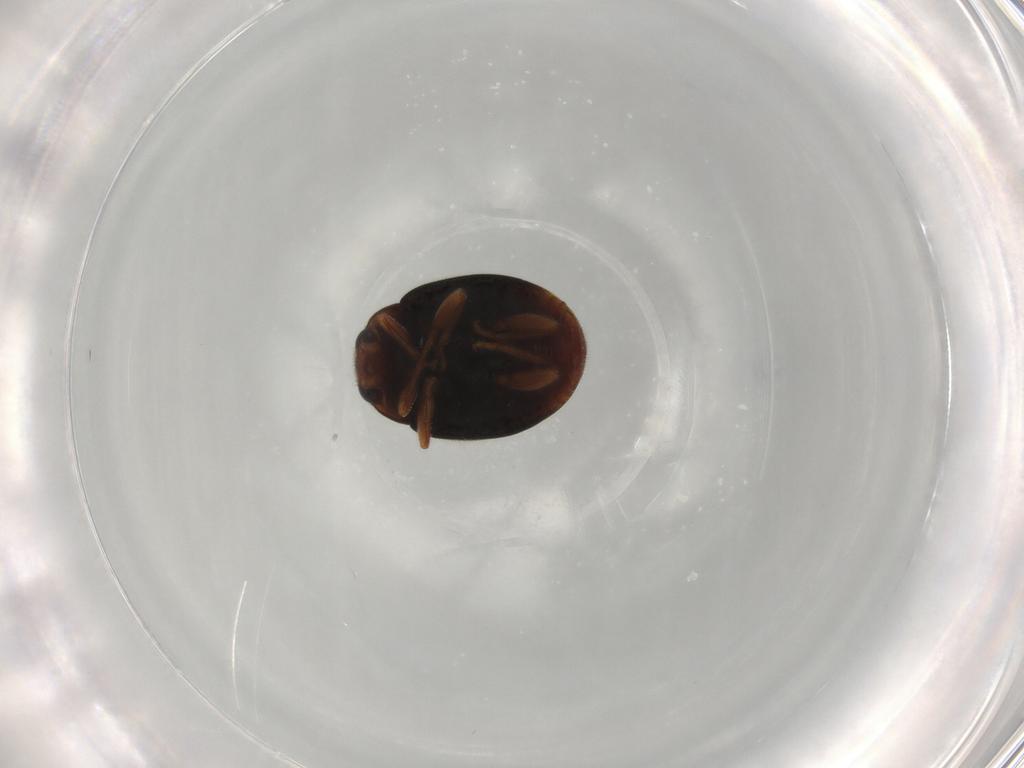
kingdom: Animalia
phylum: Arthropoda
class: Insecta
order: Coleoptera
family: Coccinellidae
